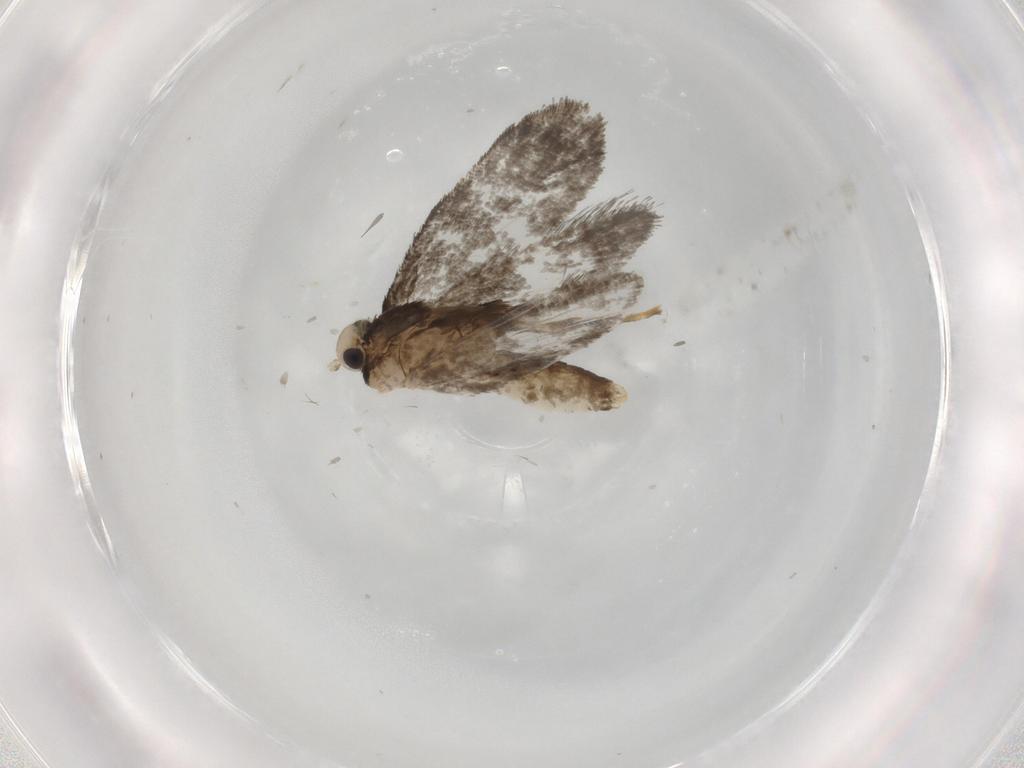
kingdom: Animalia
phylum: Arthropoda
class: Insecta
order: Lepidoptera
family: Psychidae
